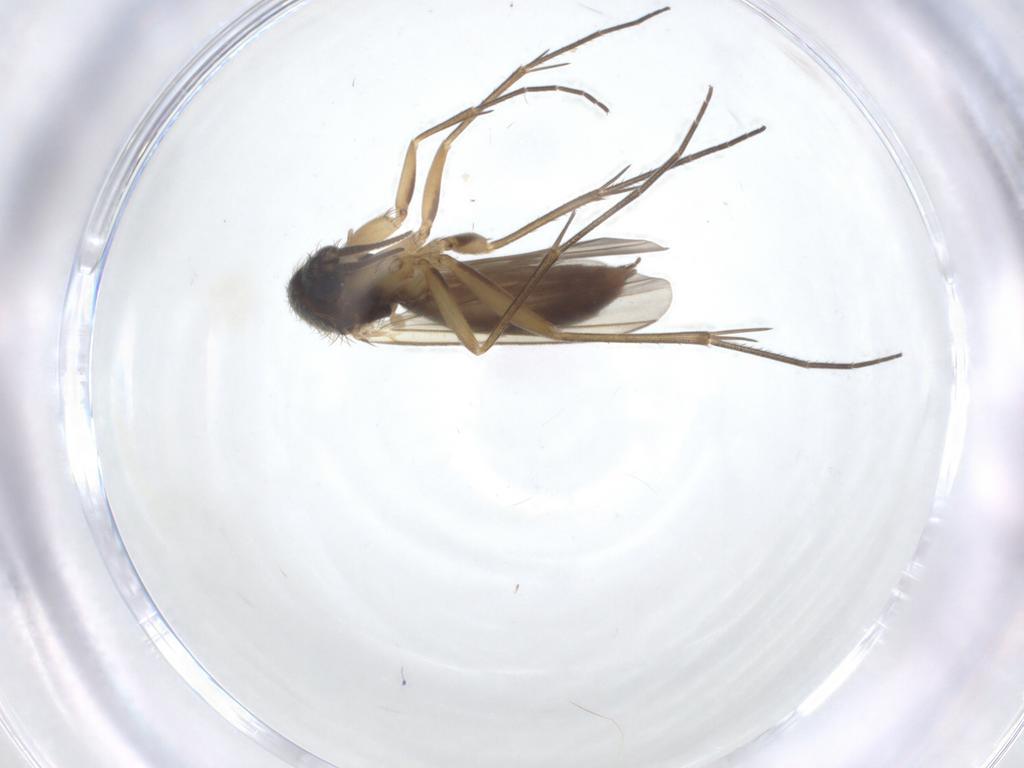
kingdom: Animalia
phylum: Arthropoda
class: Insecta
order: Diptera
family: Mycetophilidae
